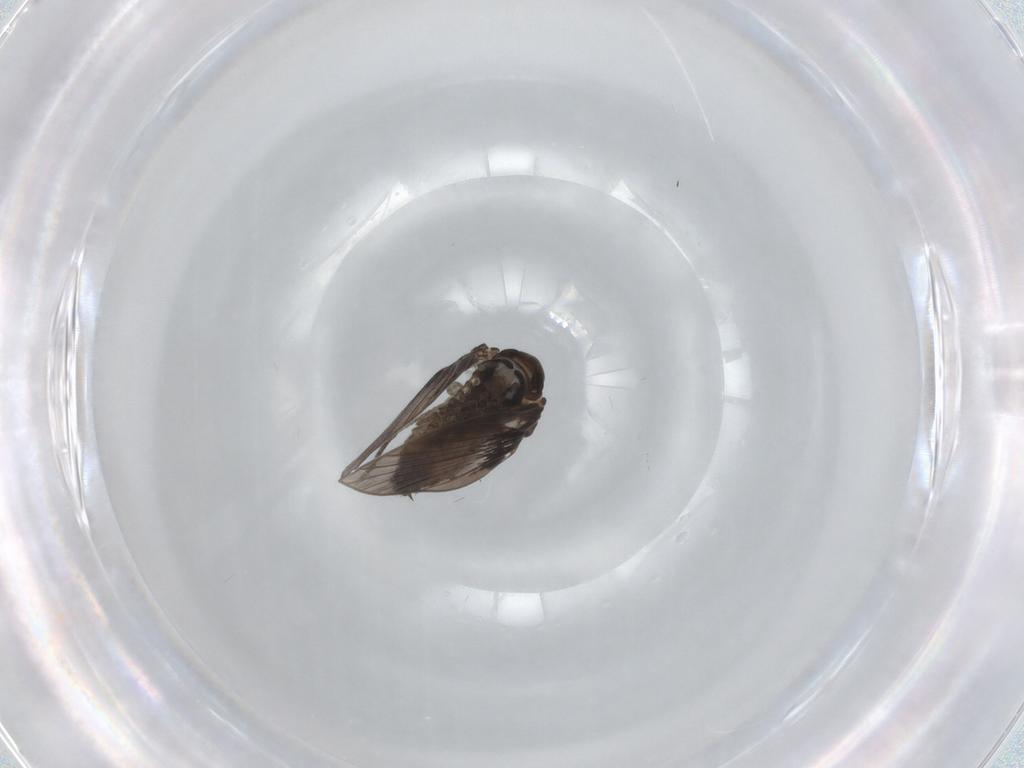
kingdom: Animalia
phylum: Arthropoda
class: Insecta
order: Diptera
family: Psychodidae
